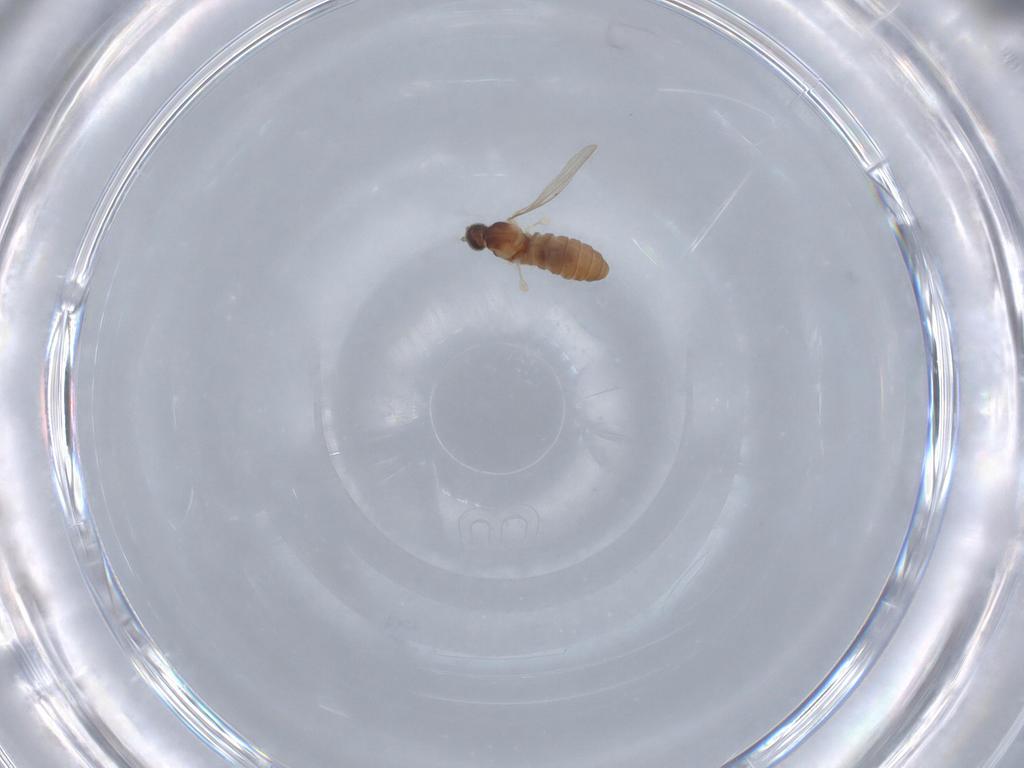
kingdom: Animalia
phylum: Arthropoda
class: Insecta
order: Diptera
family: Cecidomyiidae
